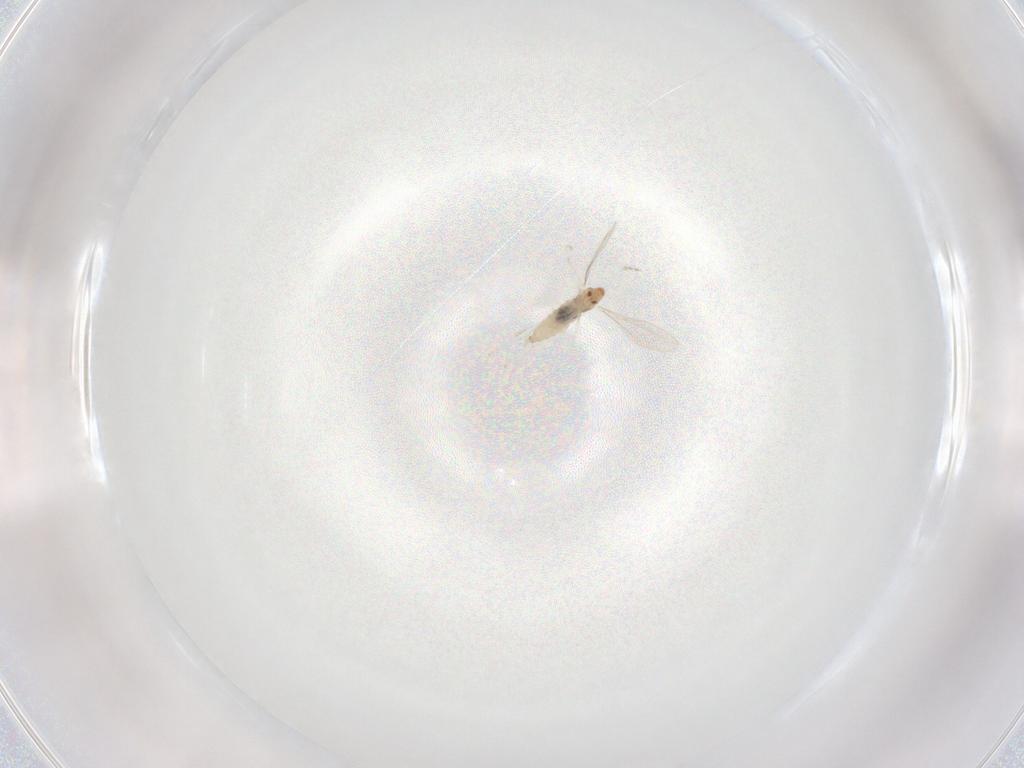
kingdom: Animalia
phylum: Arthropoda
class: Insecta
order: Diptera
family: Cecidomyiidae
